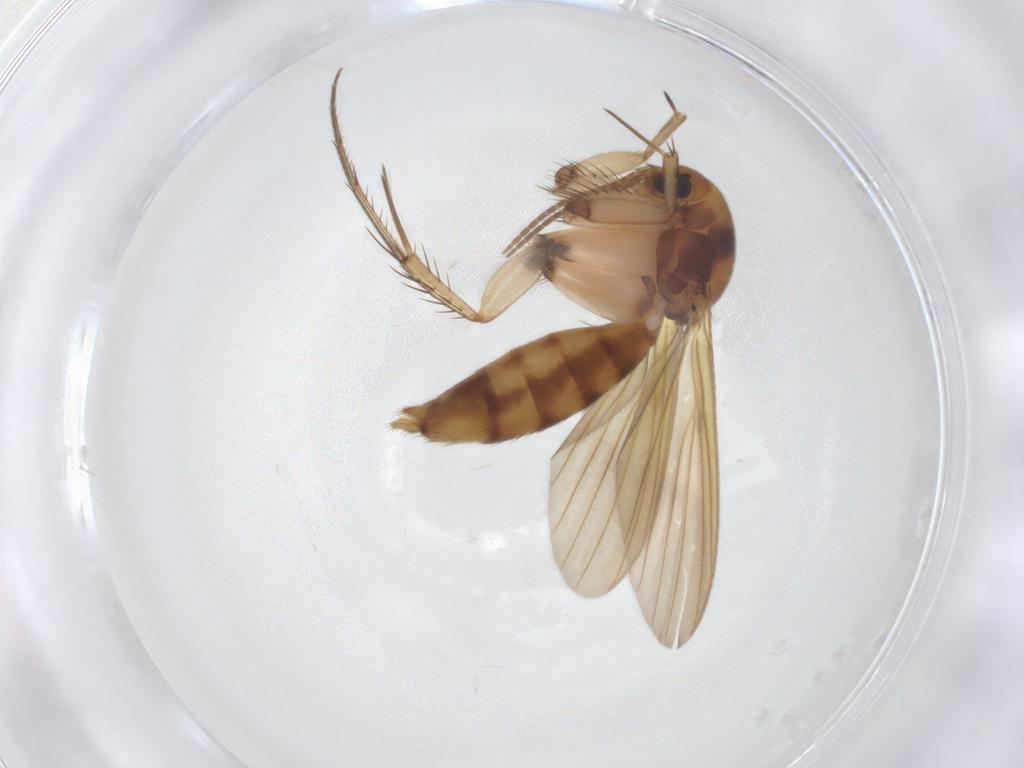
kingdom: Animalia
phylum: Arthropoda
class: Insecta
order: Diptera
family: Mycetophilidae
